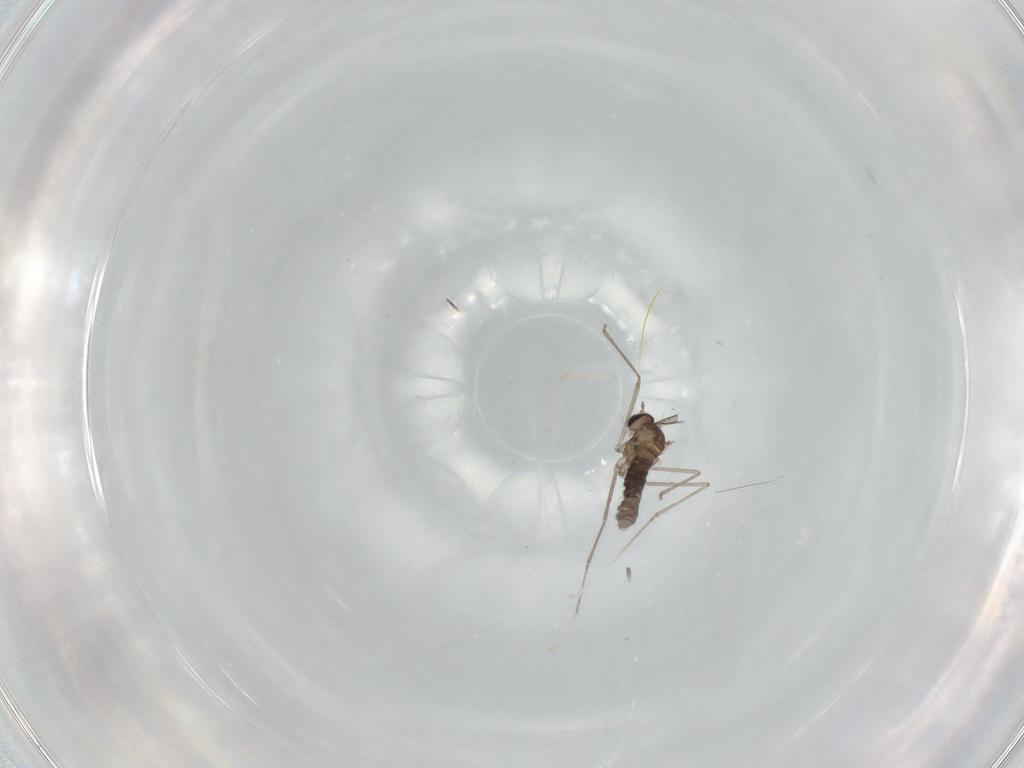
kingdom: Animalia
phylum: Arthropoda
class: Insecta
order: Diptera
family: Cecidomyiidae
